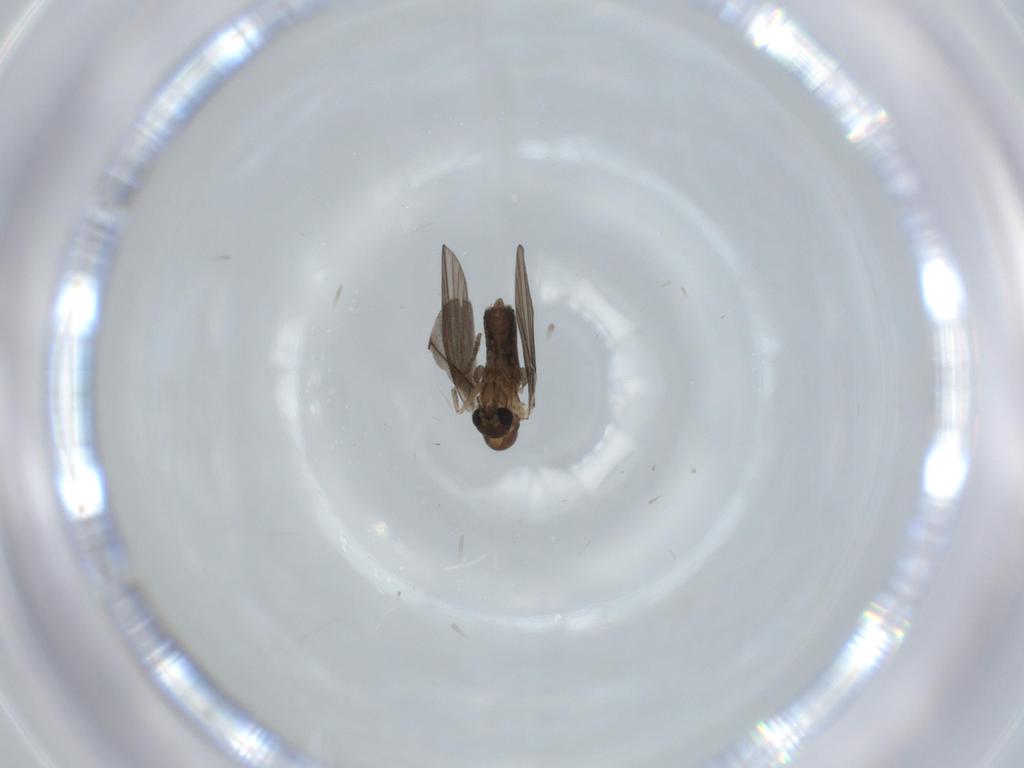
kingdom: Animalia
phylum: Arthropoda
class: Insecta
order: Diptera
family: Psychodidae
